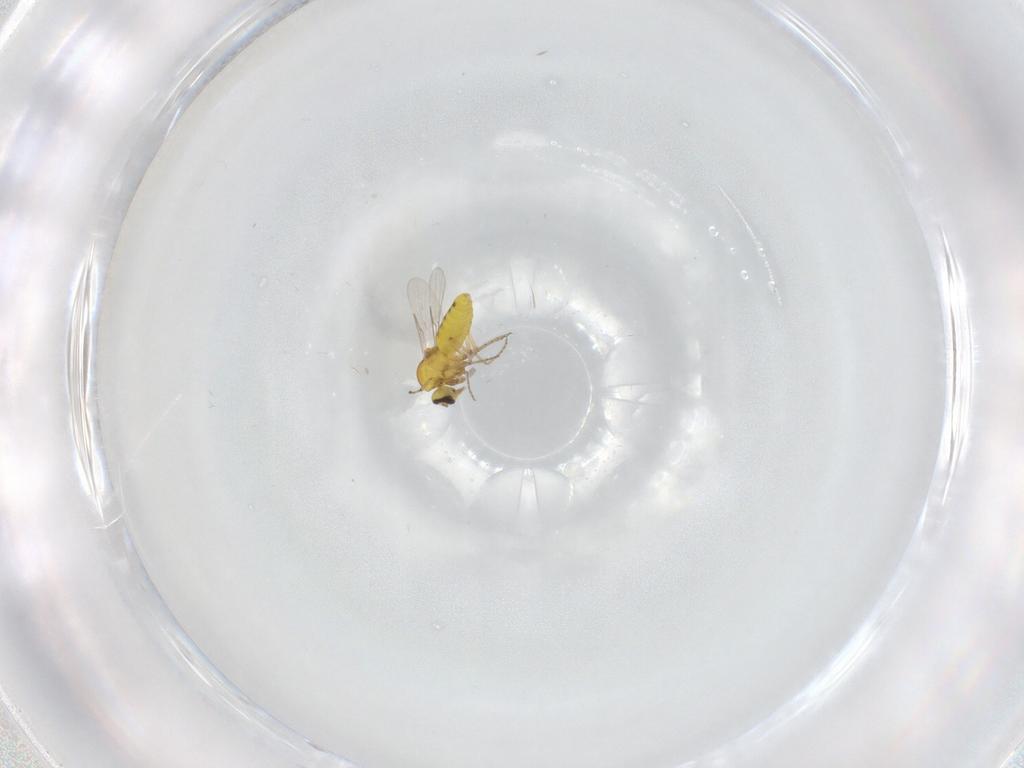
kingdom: Animalia
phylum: Arthropoda
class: Insecta
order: Diptera
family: Ceratopogonidae
